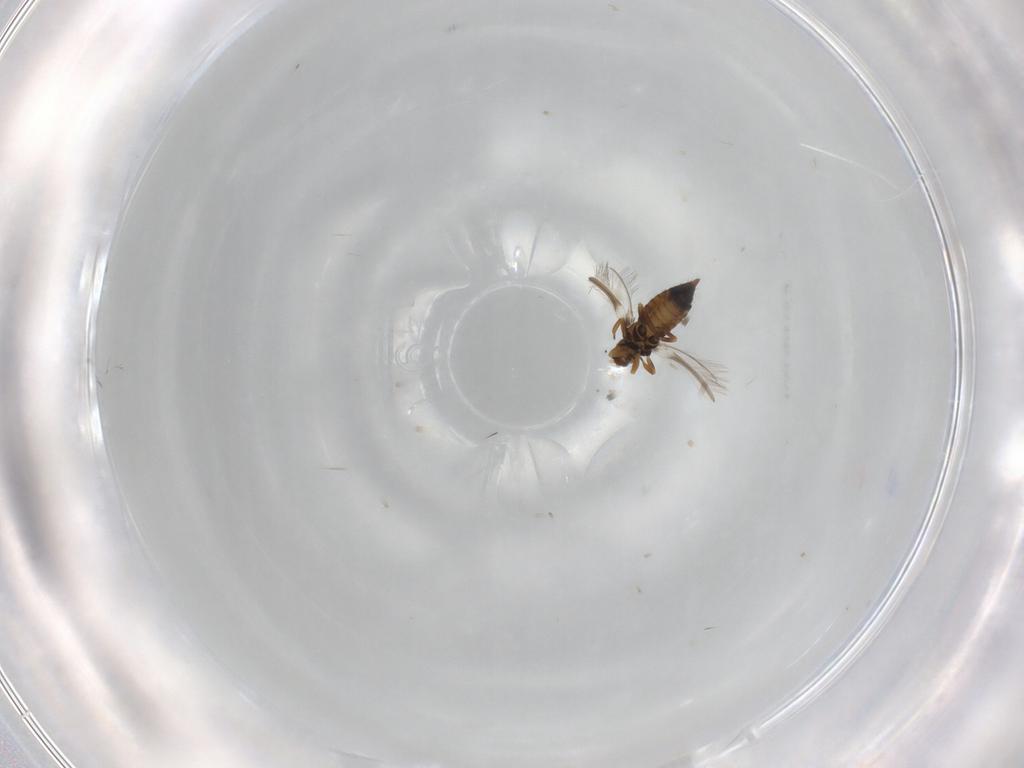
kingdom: Animalia
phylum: Arthropoda
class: Insecta
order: Thysanoptera
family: Thripidae
